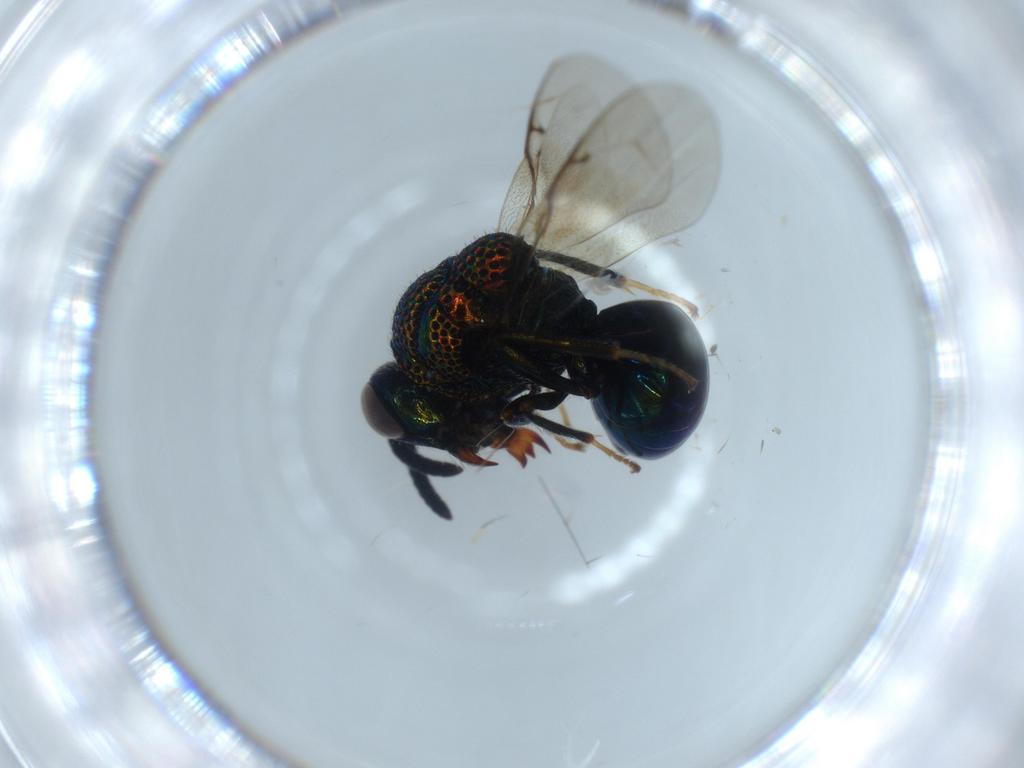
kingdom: Animalia
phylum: Arthropoda
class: Insecta
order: Hymenoptera
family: Perilampidae
